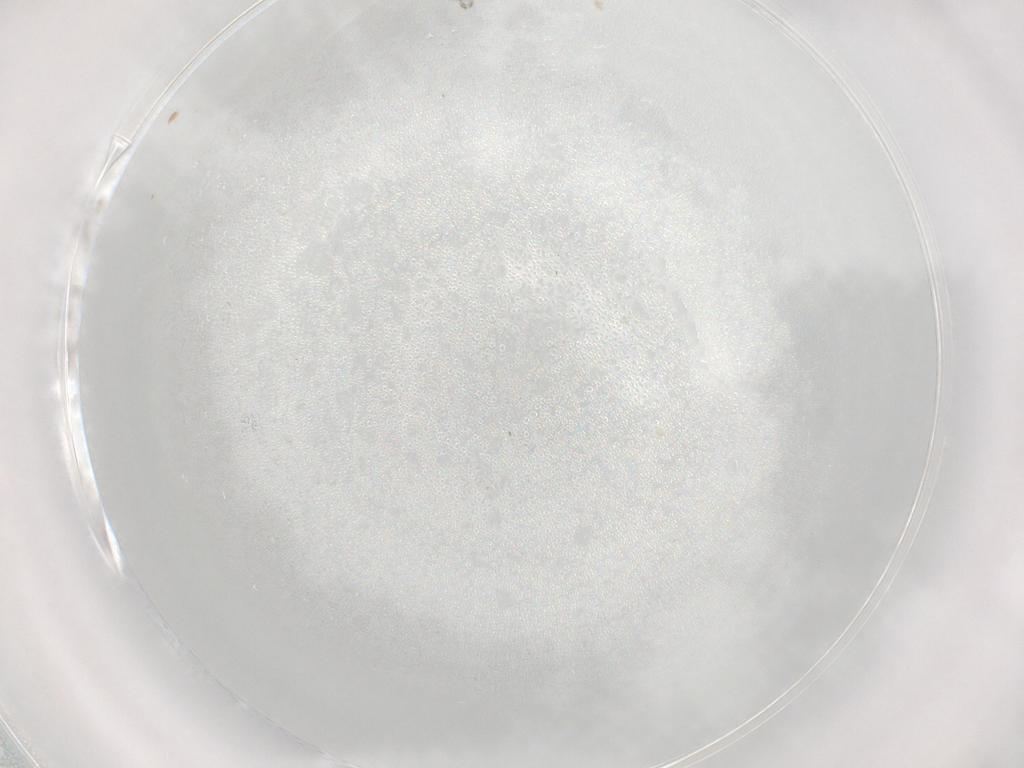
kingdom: Animalia
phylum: Arthropoda
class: Insecta
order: Diptera
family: Cecidomyiidae
